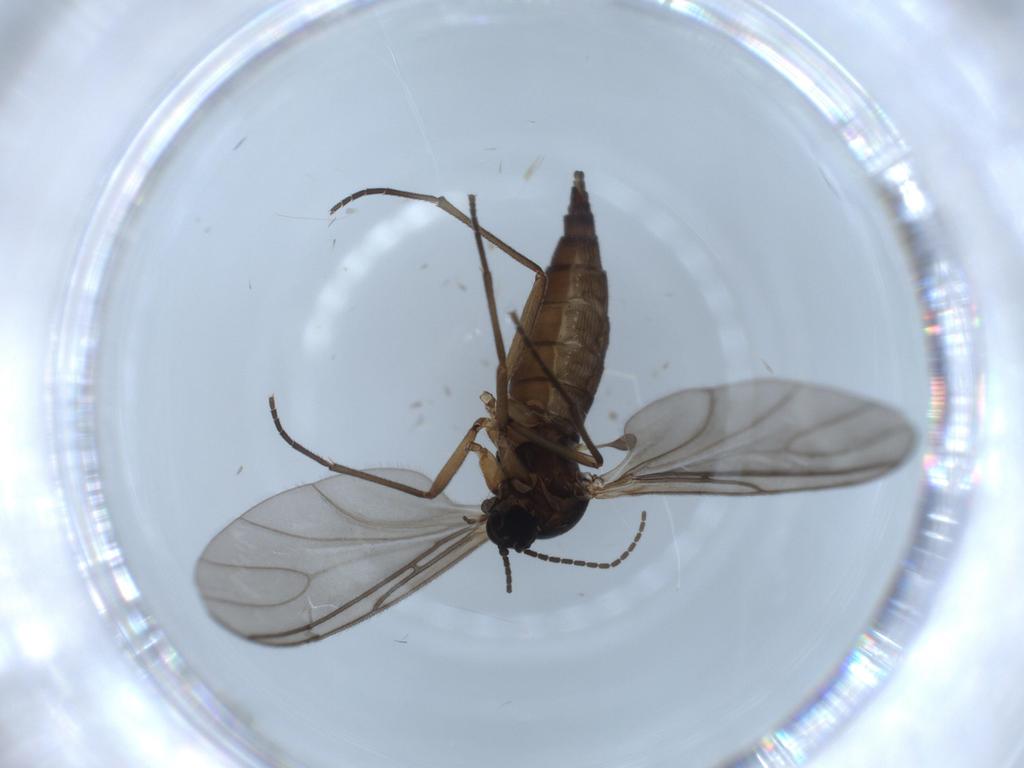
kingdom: Animalia
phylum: Arthropoda
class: Insecta
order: Diptera
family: Sciaridae
